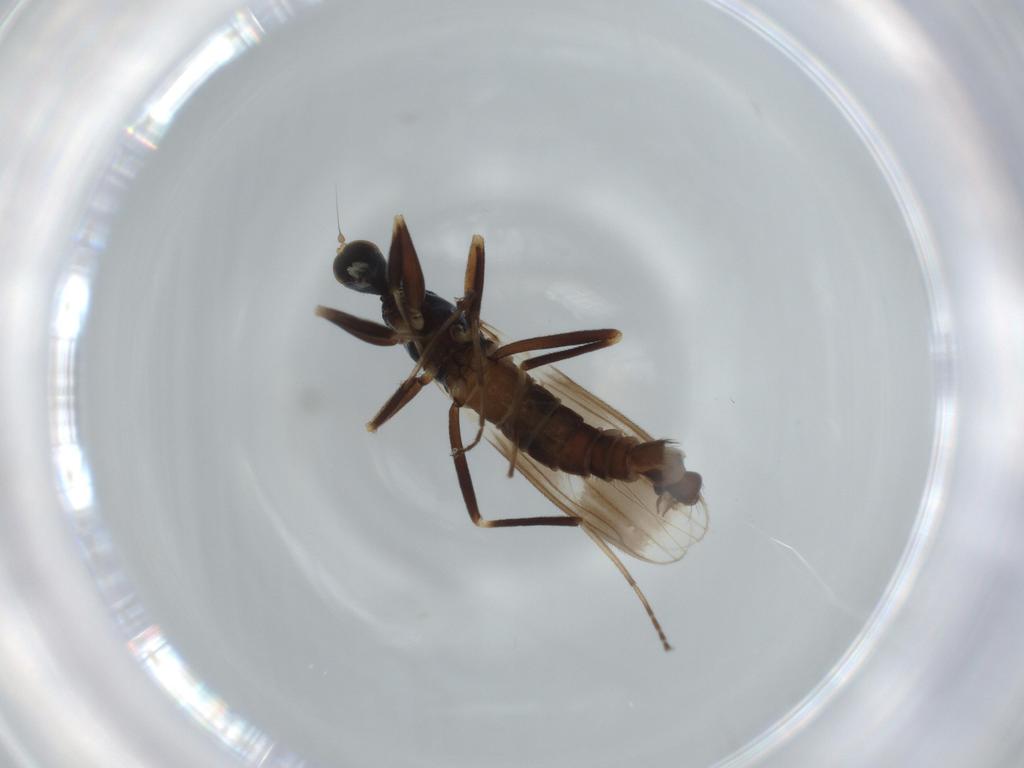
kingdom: Animalia
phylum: Arthropoda
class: Insecta
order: Diptera
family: Hybotidae
